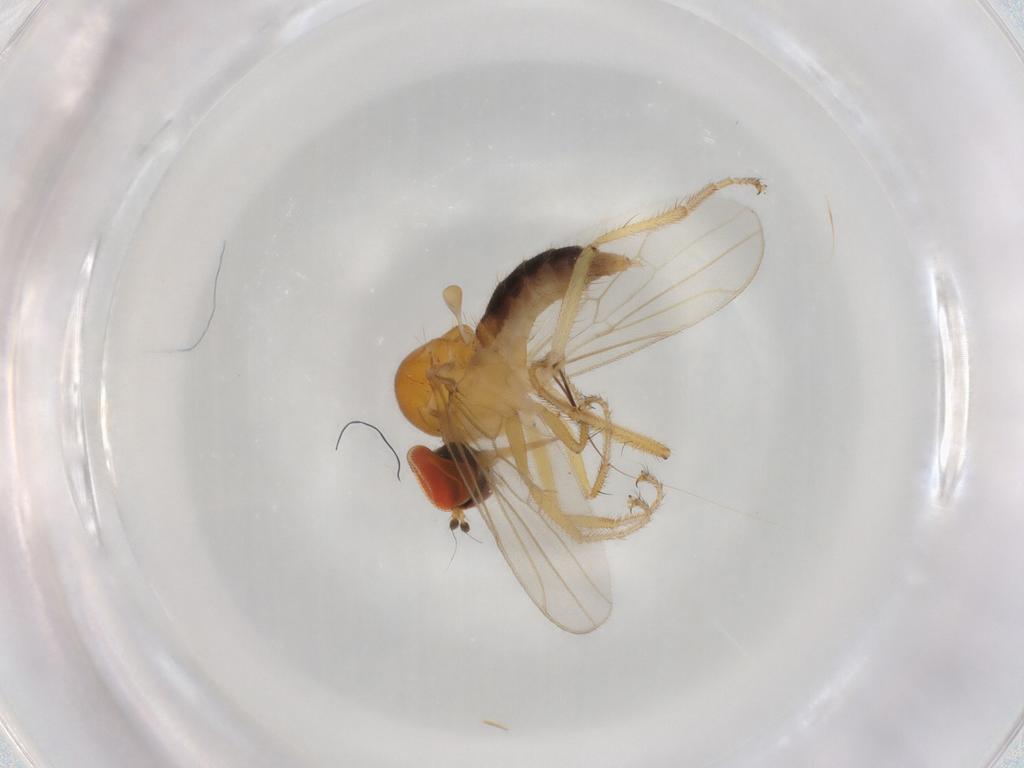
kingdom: Animalia
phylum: Arthropoda
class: Insecta
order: Diptera
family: Hybotidae
